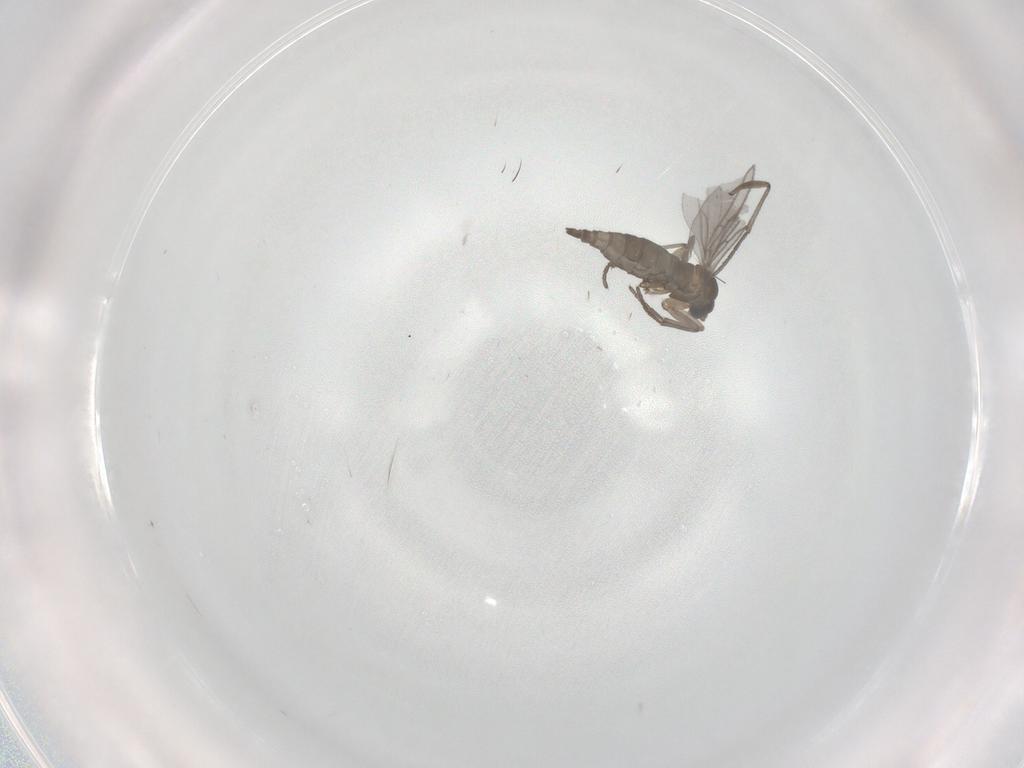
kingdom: Animalia
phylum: Arthropoda
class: Insecta
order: Diptera
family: Sciaridae
